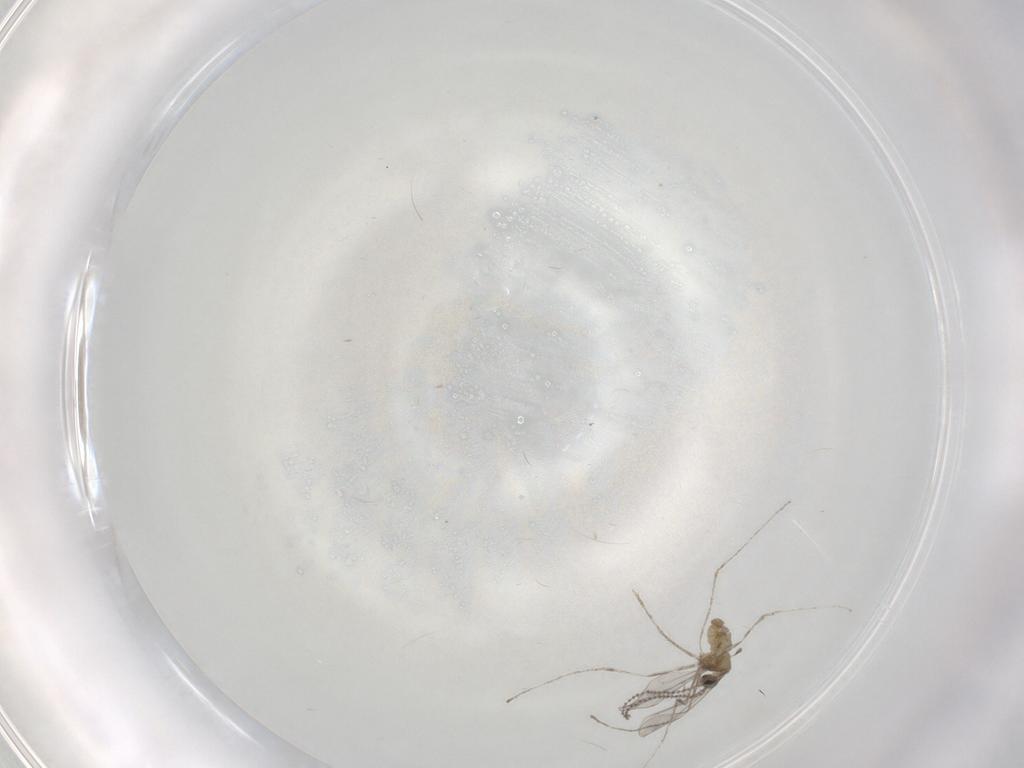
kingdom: Animalia
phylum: Arthropoda
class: Insecta
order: Diptera
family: Cecidomyiidae
